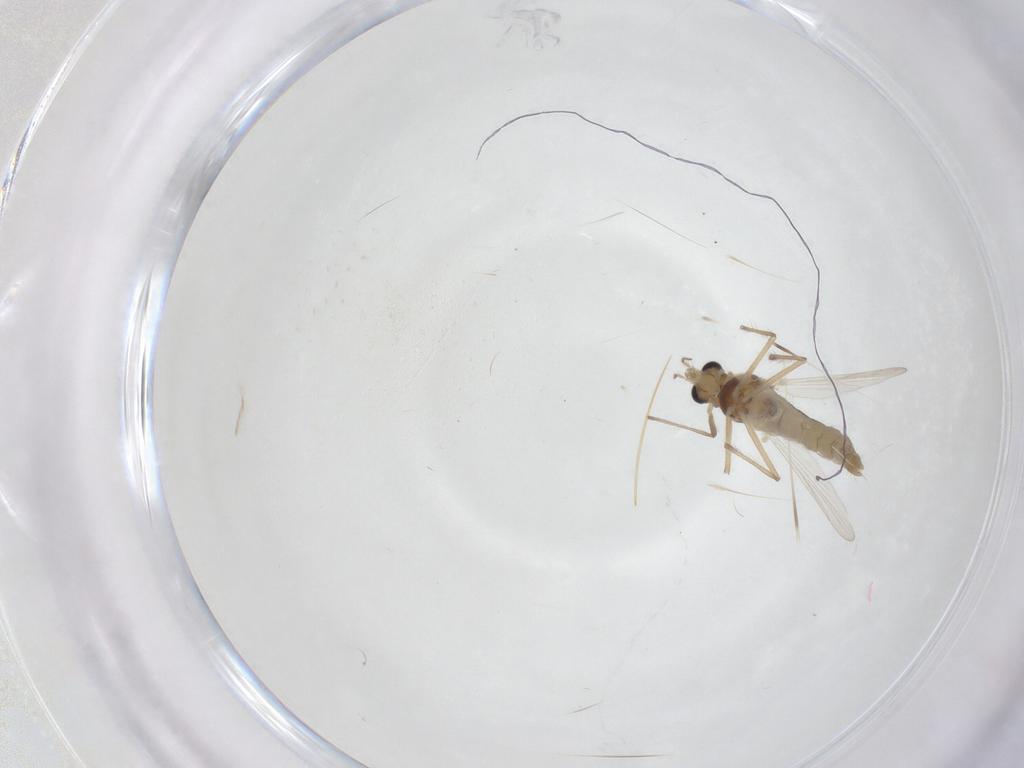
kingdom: Animalia
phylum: Arthropoda
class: Insecta
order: Diptera
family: Chironomidae
